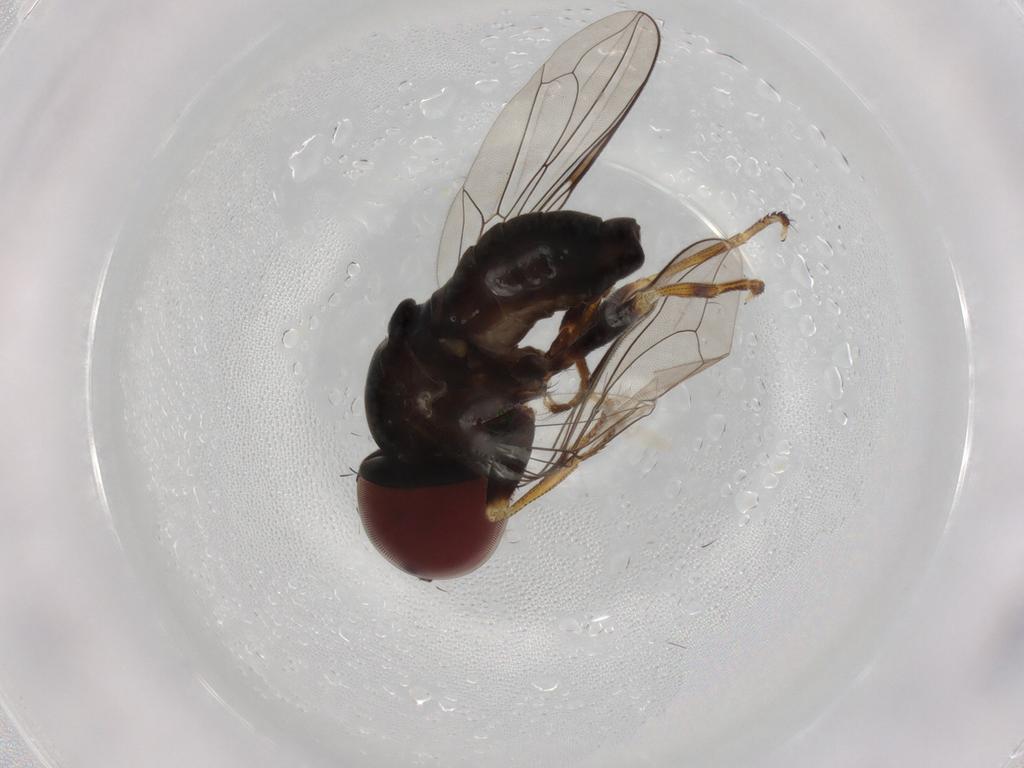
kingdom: Animalia
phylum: Arthropoda
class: Insecta
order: Diptera
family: Pipunculidae
